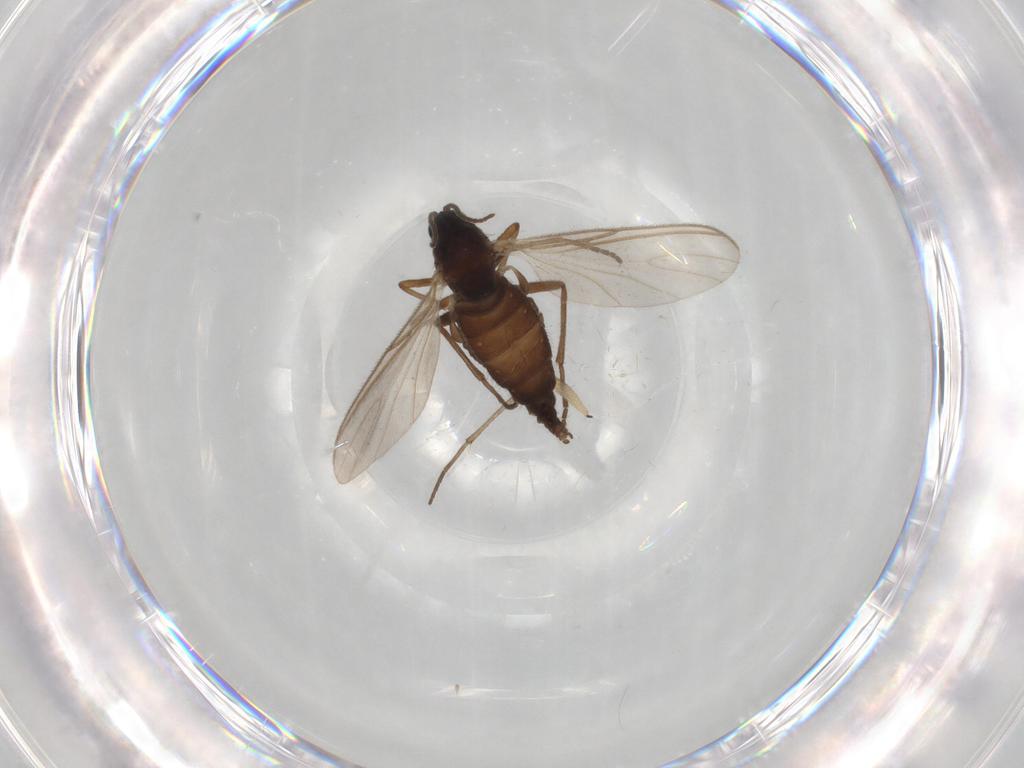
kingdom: Animalia
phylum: Arthropoda
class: Insecta
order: Diptera
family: Sciaridae
